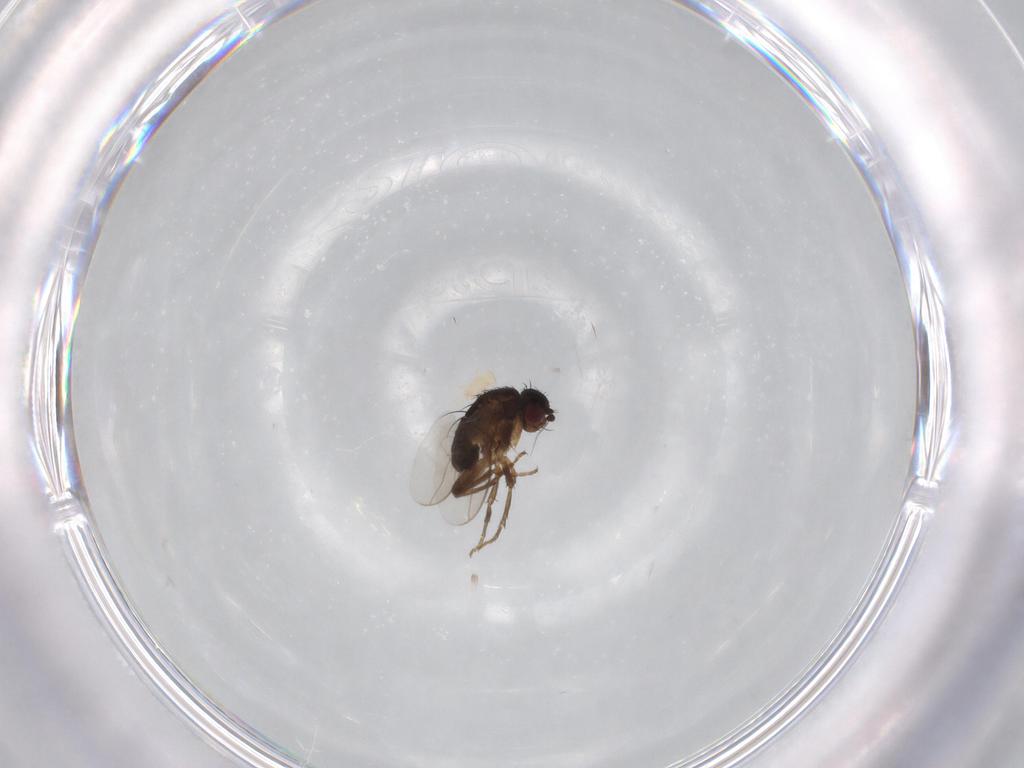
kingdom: Animalia
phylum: Arthropoda
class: Insecta
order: Diptera
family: Sphaeroceridae
